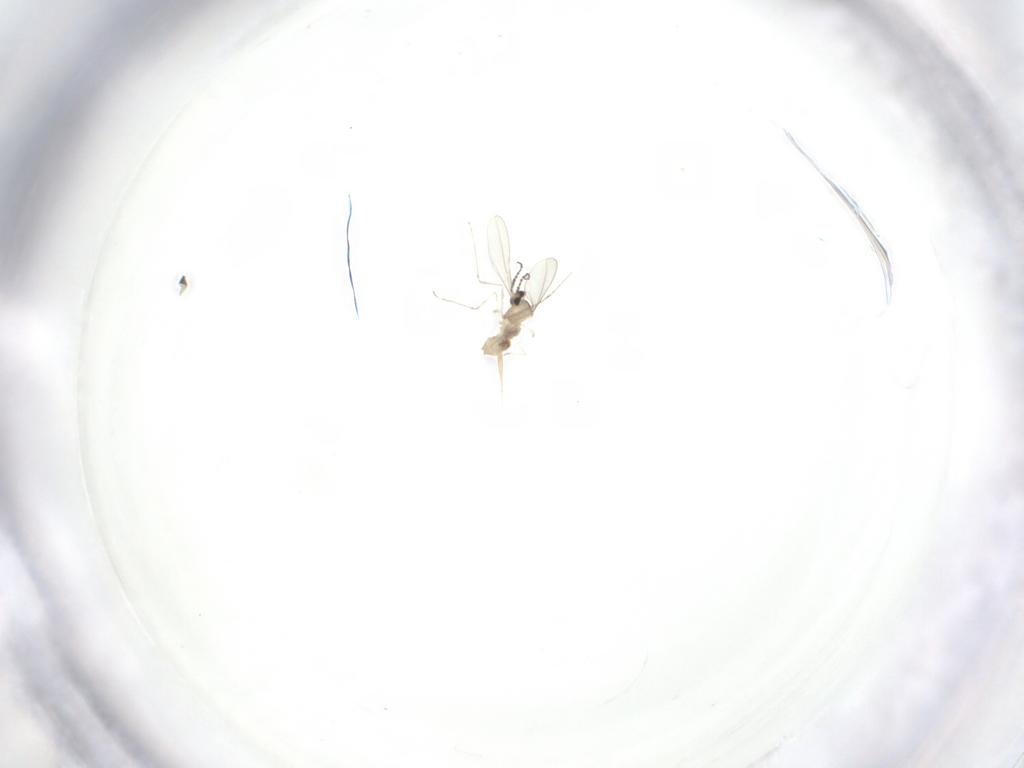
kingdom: Animalia
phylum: Arthropoda
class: Insecta
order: Diptera
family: Cecidomyiidae
